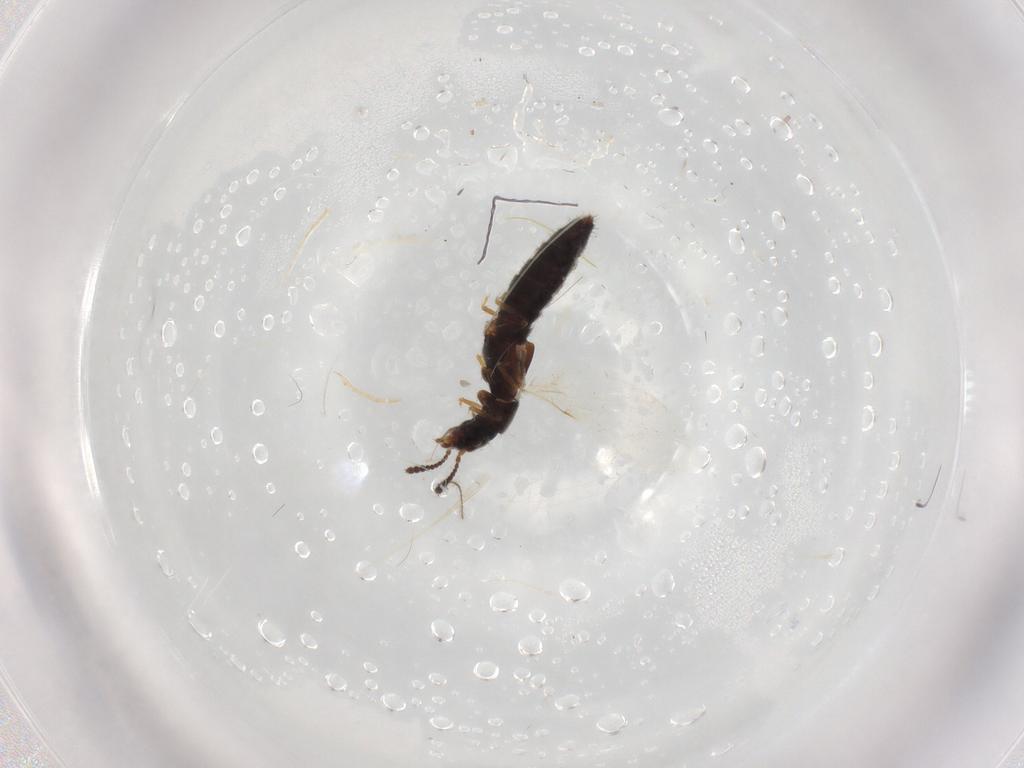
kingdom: Animalia
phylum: Arthropoda
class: Insecta
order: Coleoptera
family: Staphylinidae
